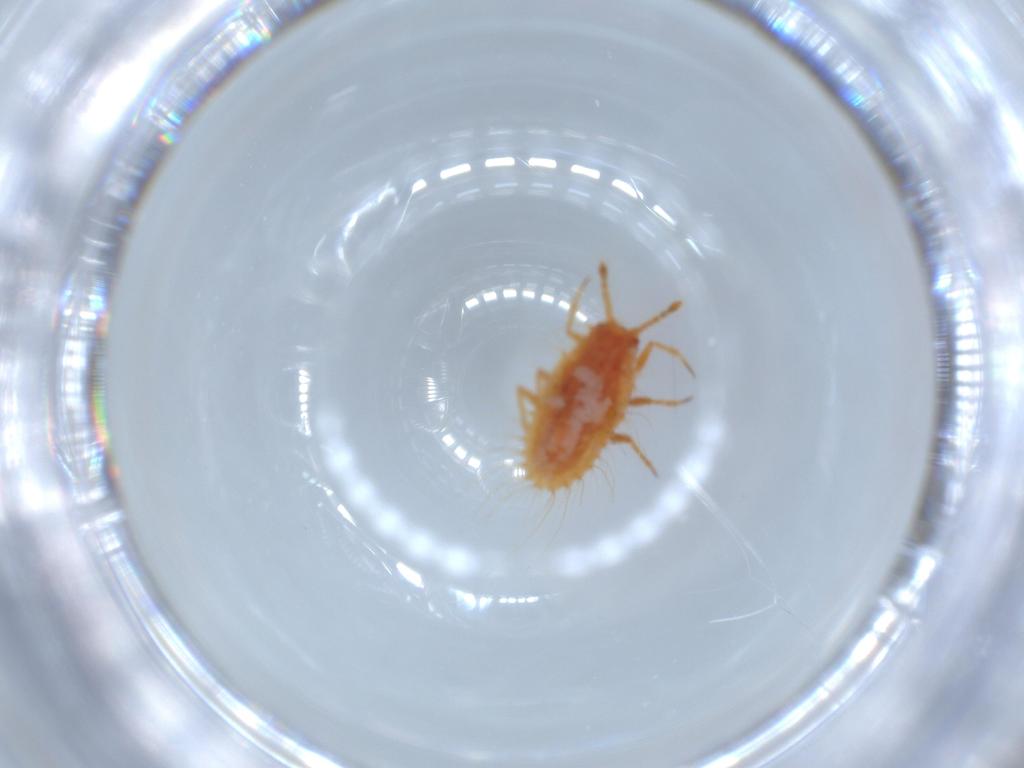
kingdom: Animalia
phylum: Arthropoda
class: Insecta
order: Hemiptera
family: Coccoidea_incertae_sedis
